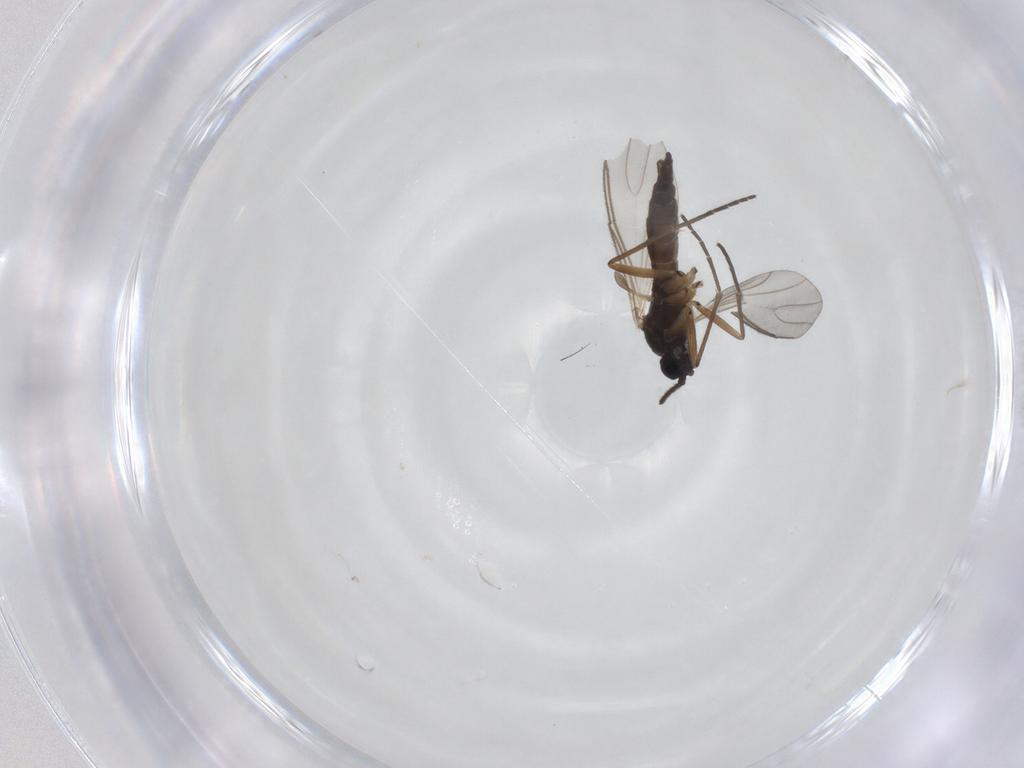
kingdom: Animalia
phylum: Arthropoda
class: Insecta
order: Diptera
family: Sciaridae
